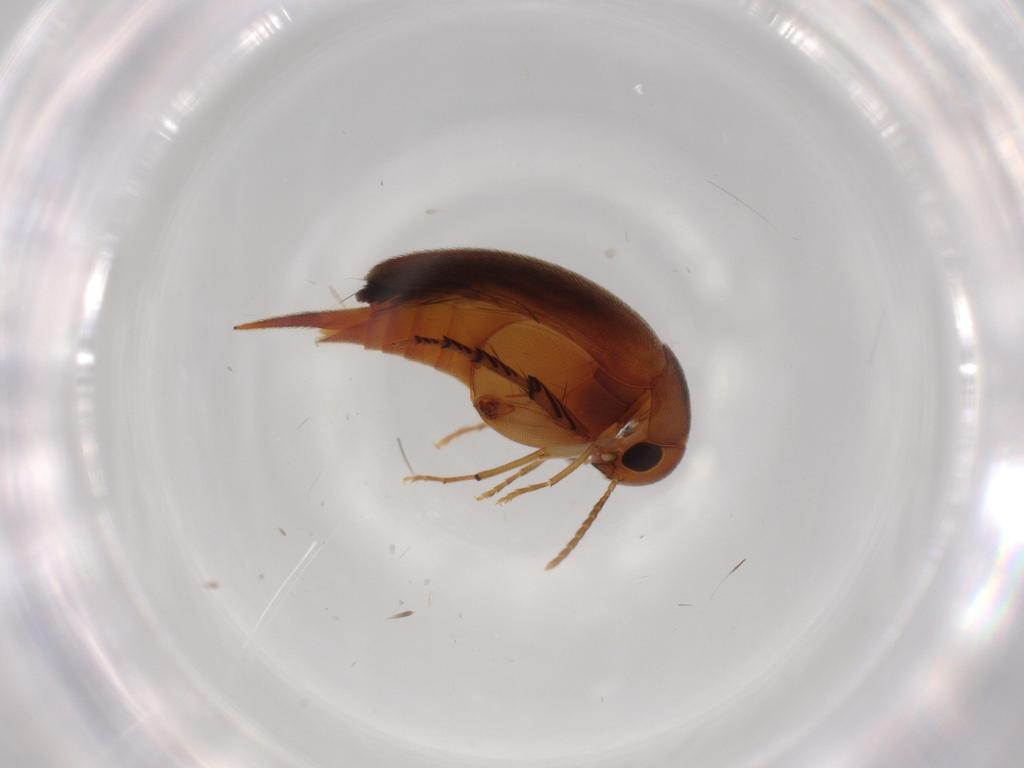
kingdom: Animalia
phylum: Arthropoda
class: Insecta
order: Coleoptera
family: Mordellidae
